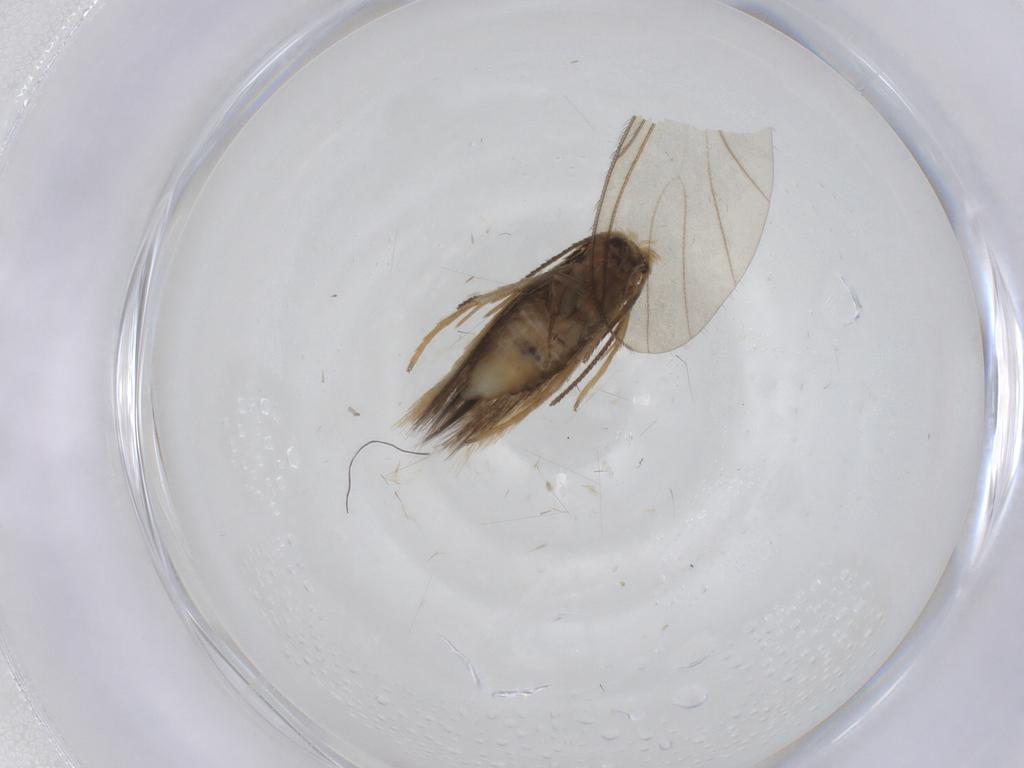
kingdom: Animalia
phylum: Arthropoda
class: Insecta
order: Lepidoptera
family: Nepticulidae
